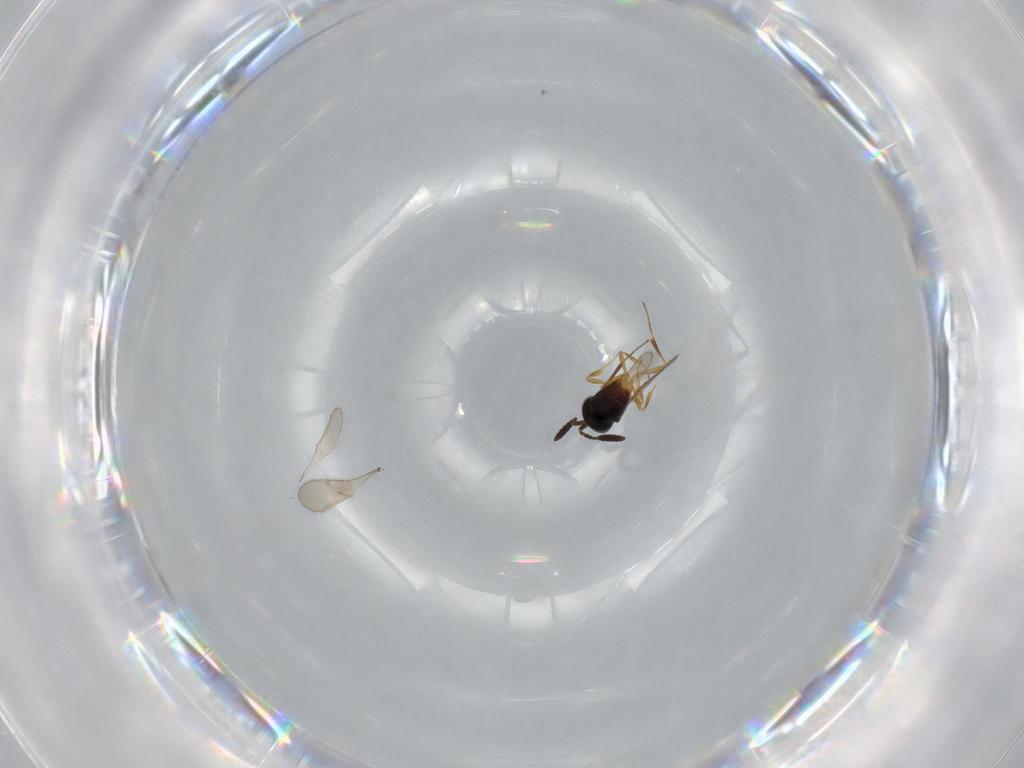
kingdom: Animalia
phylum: Arthropoda
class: Insecta
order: Hymenoptera
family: Scelionidae
